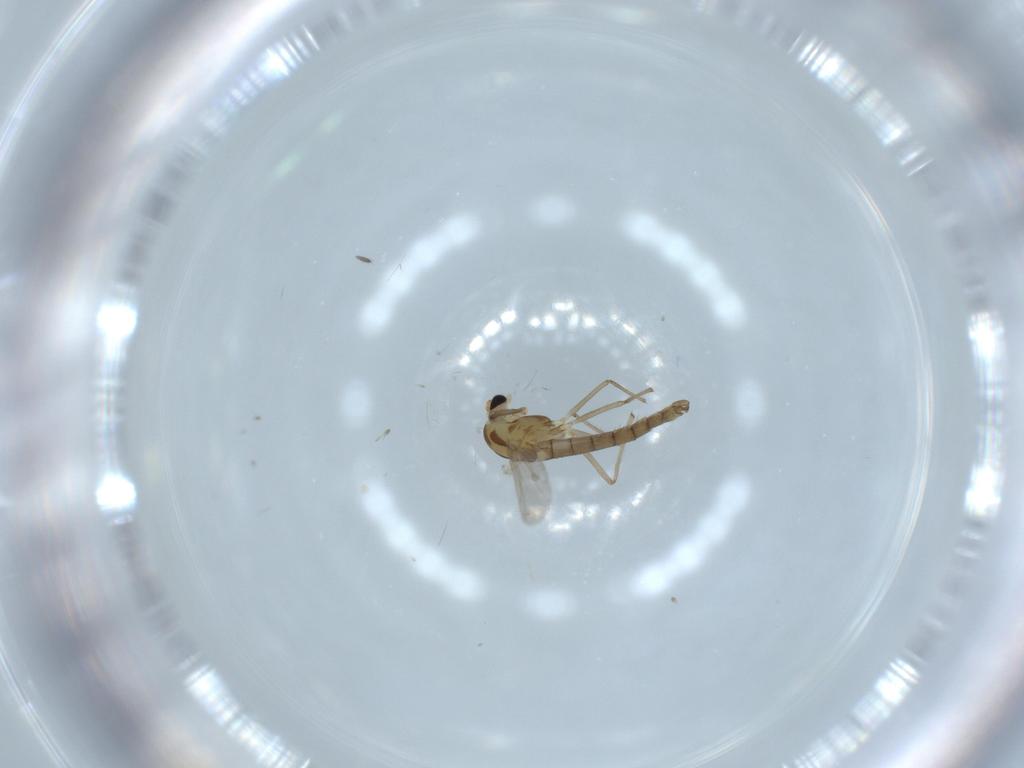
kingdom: Animalia
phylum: Arthropoda
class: Insecta
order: Diptera
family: Chironomidae
